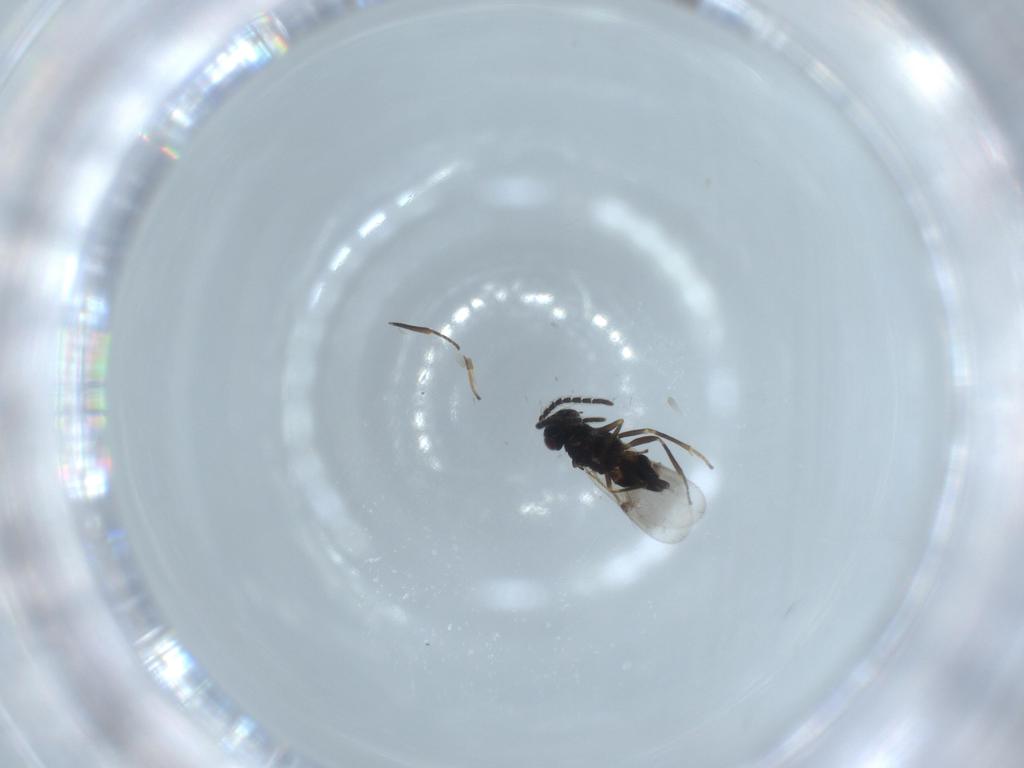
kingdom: Animalia
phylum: Arthropoda
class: Insecta
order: Hymenoptera
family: Encyrtidae
